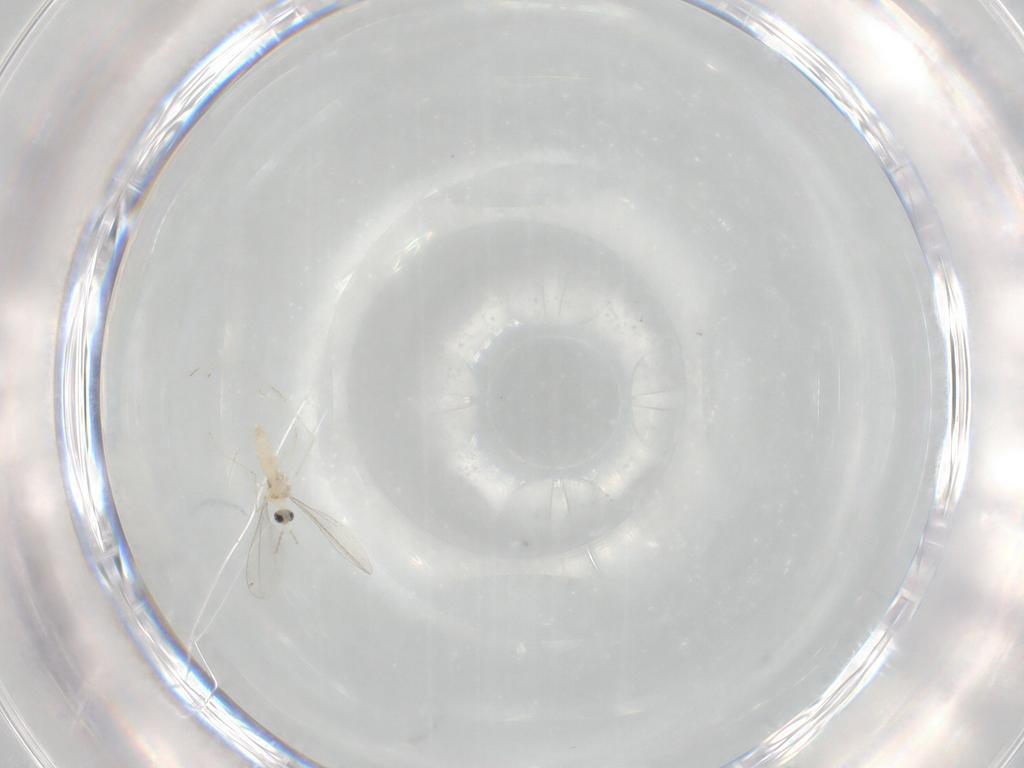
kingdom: Animalia
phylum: Arthropoda
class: Insecta
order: Diptera
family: Cecidomyiidae
